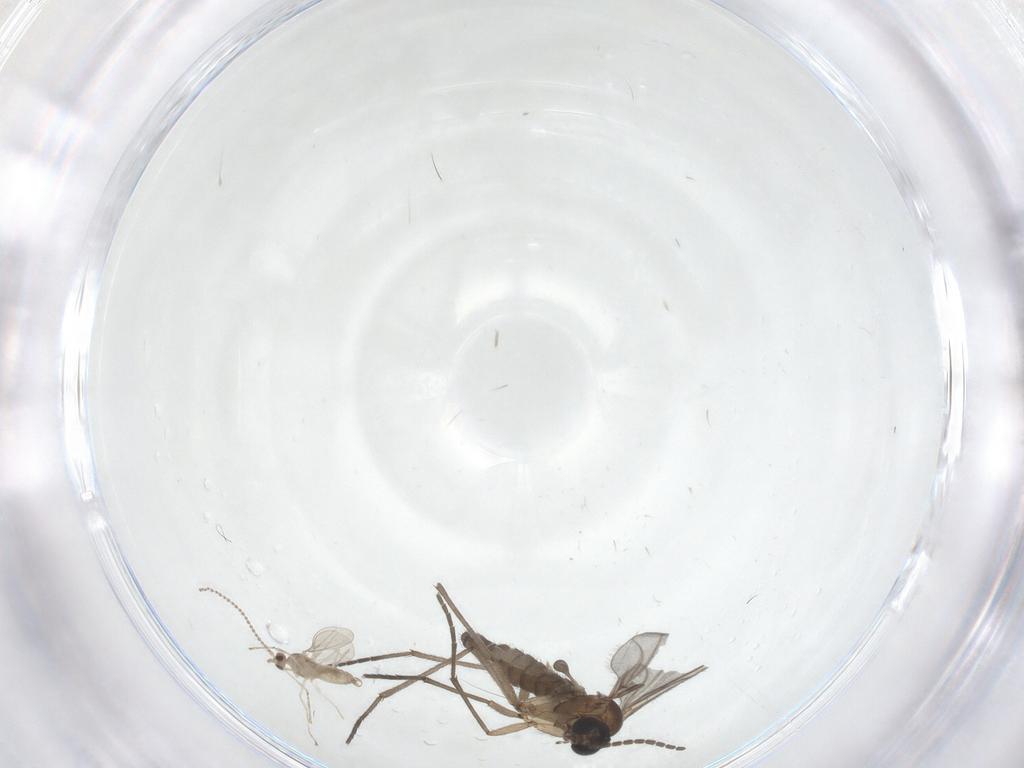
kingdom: Animalia
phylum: Arthropoda
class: Insecta
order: Diptera
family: Cecidomyiidae
